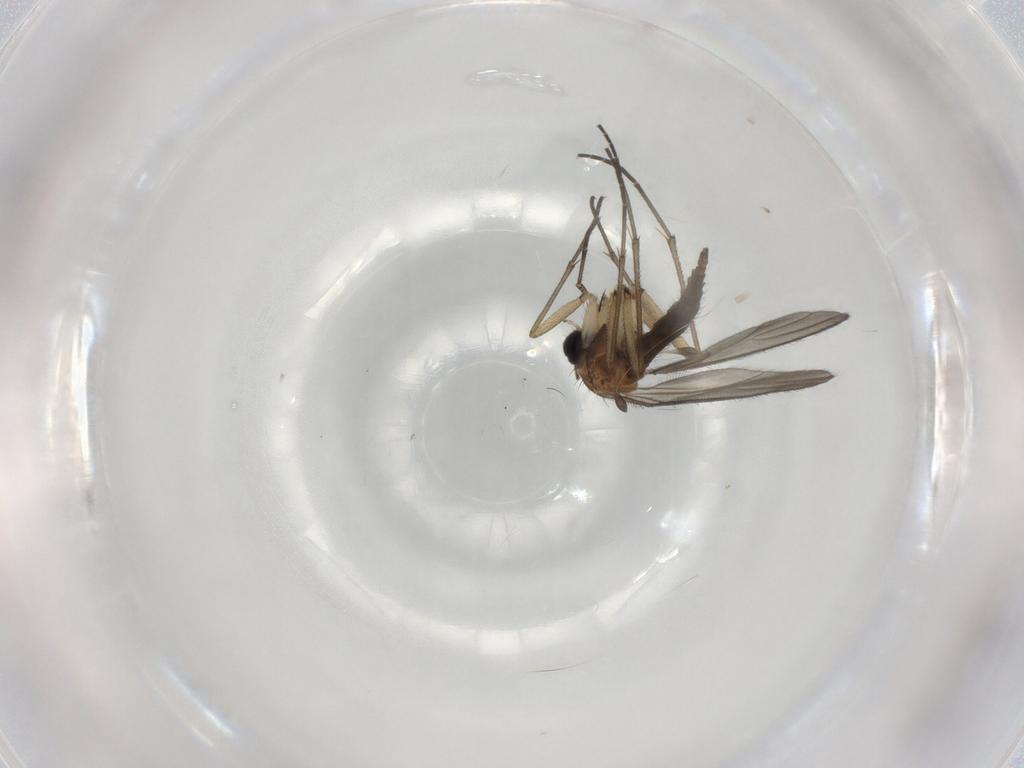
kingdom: Animalia
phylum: Arthropoda
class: Insecta
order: Diptera
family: Sciaridae
